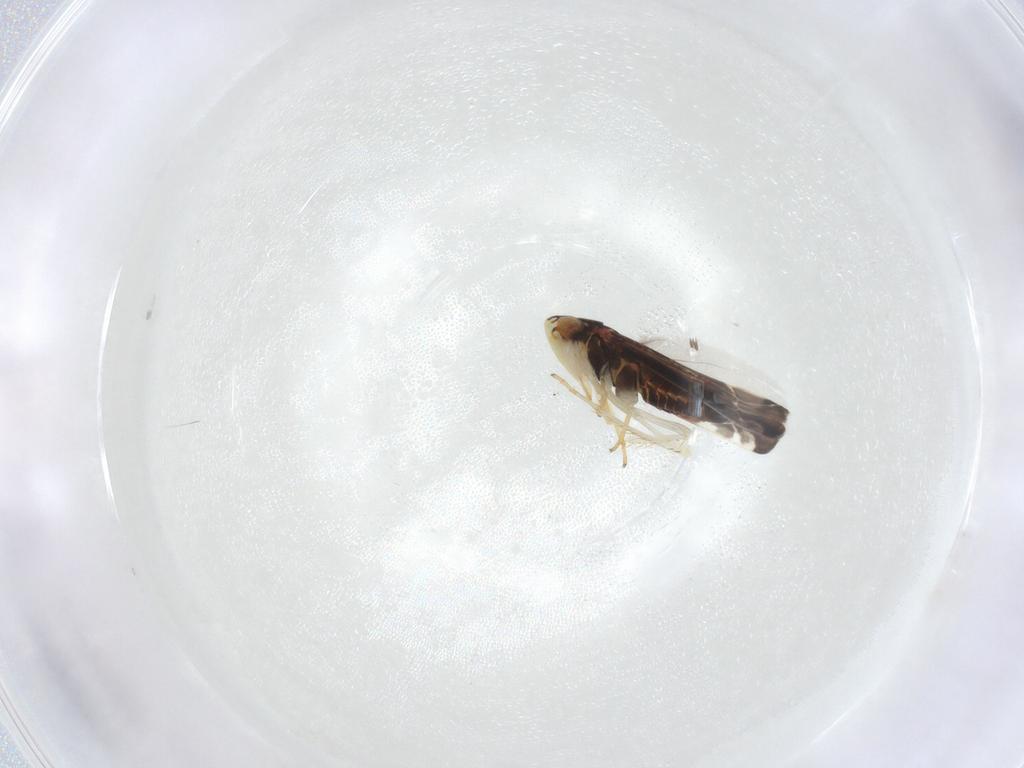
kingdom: Animalia
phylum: Arthropoda
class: Insecta
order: Hemiptera
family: Cicadellidae
